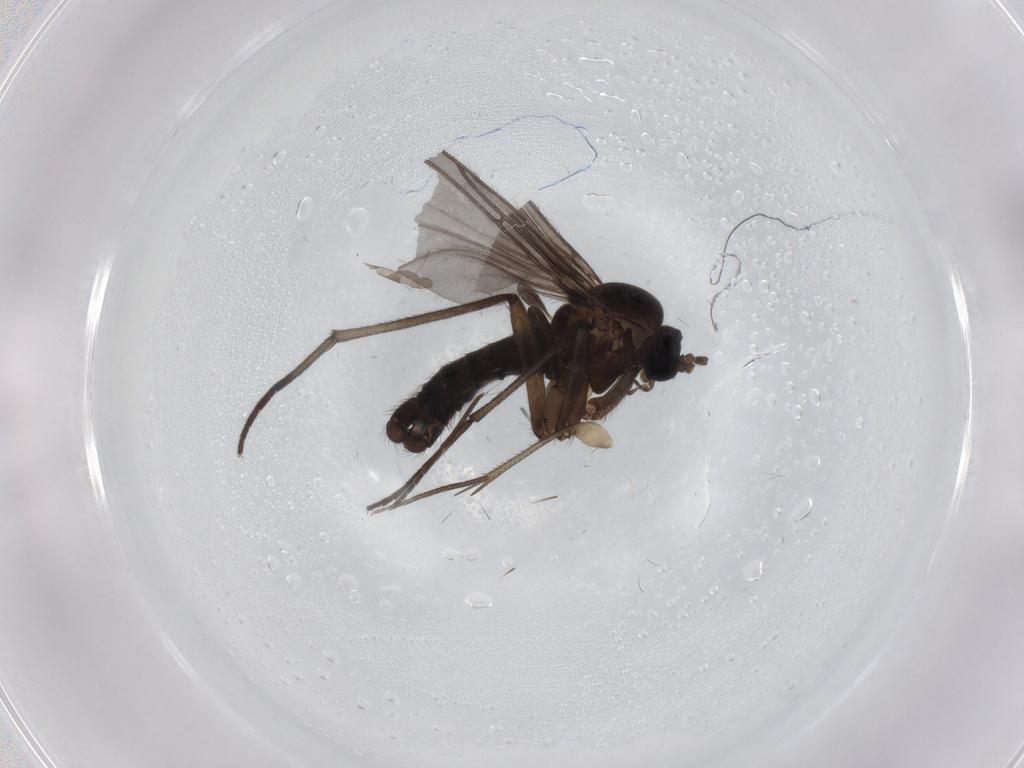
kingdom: Animalia
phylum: Arthropoda
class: Insecta
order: Diptera
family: Sciaridae
